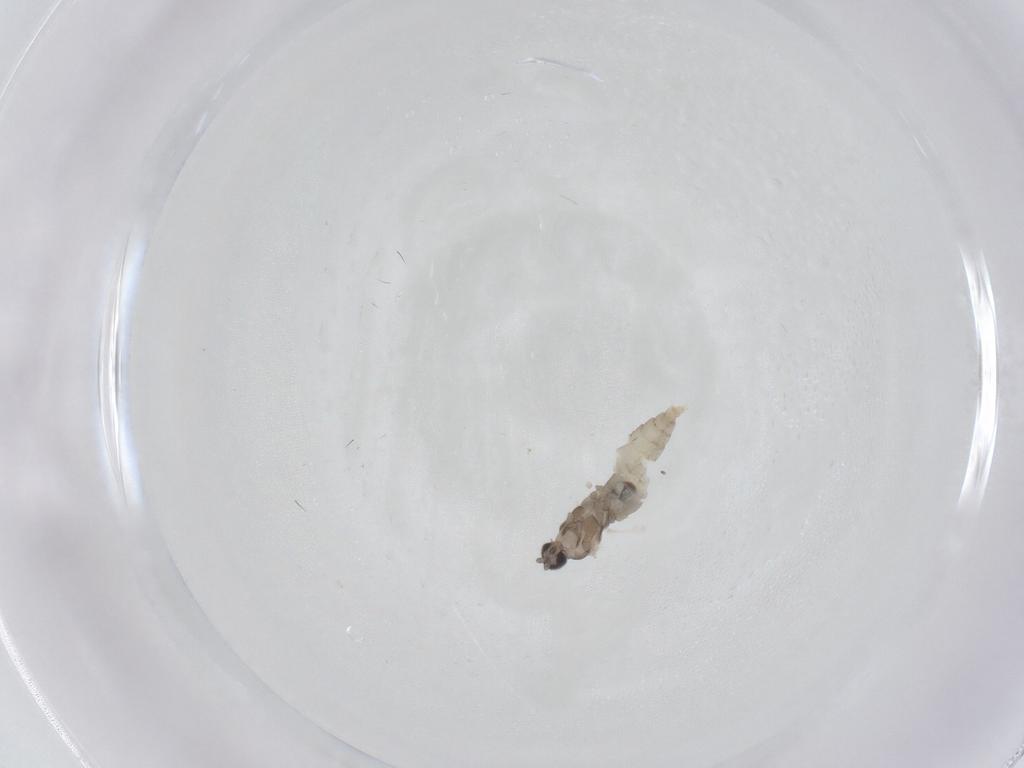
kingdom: Animalia
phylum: Arthropoda
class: Insecta
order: Diptera
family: Cecidomyiidae
